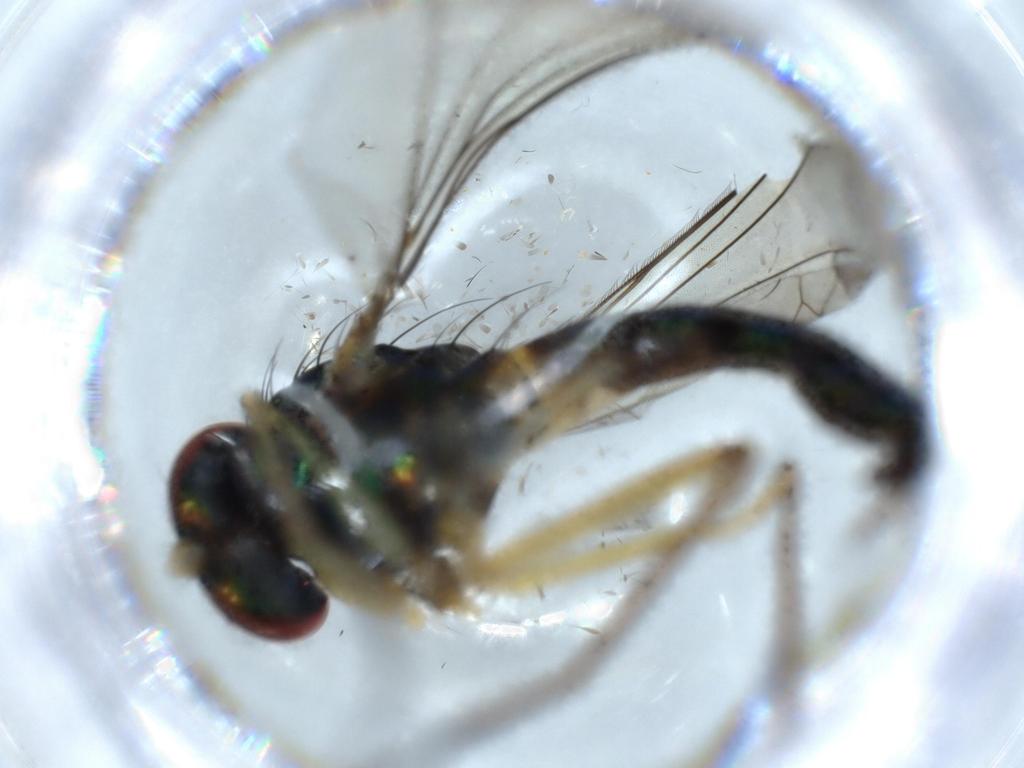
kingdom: Animalia
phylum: Arthropoda
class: Insecta
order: Diptera
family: Dolichopodidae
